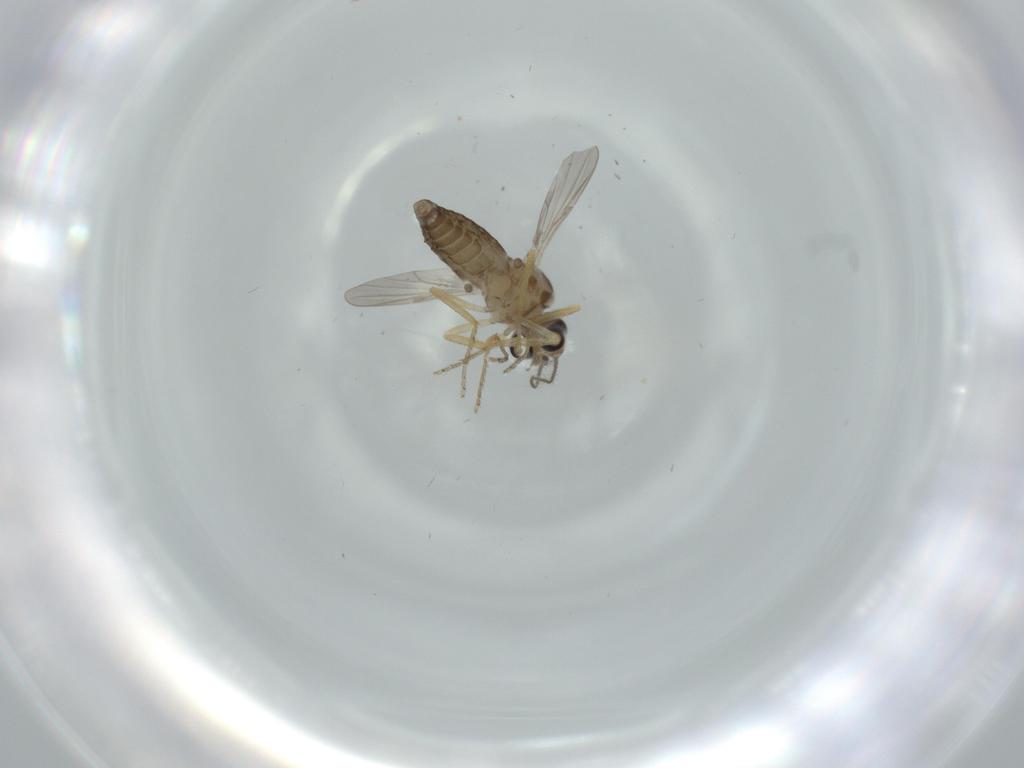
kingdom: Animalia
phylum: Arthropoda
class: Insecta
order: Diptera
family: Ceratopogonidae
